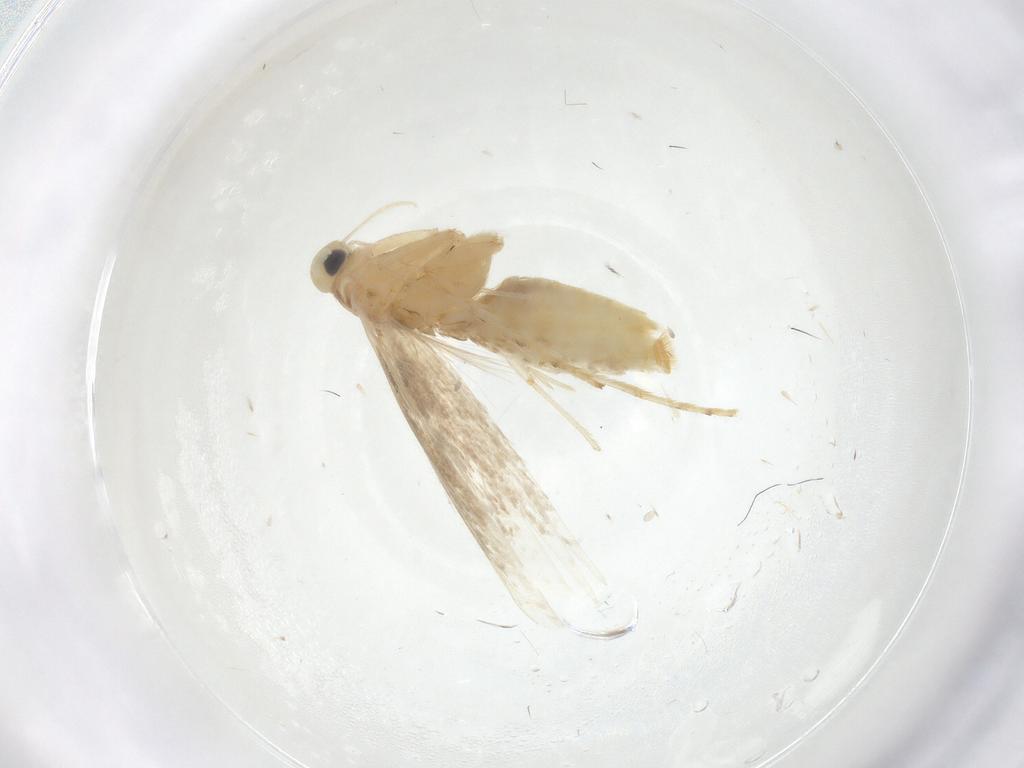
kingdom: Animalia
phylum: Arthropoda
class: Insecta
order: Lepidoptera
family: Gracillariidae
